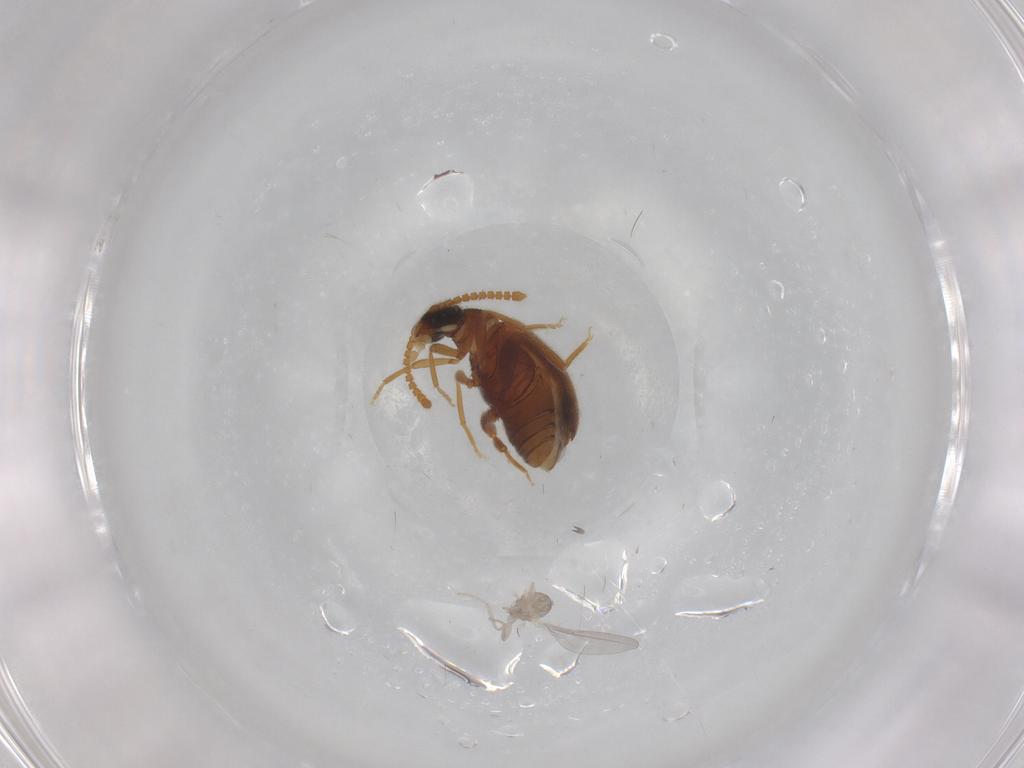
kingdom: Animalia
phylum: Arthropoda
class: Insecta
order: Coleoptera
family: Aderidae
